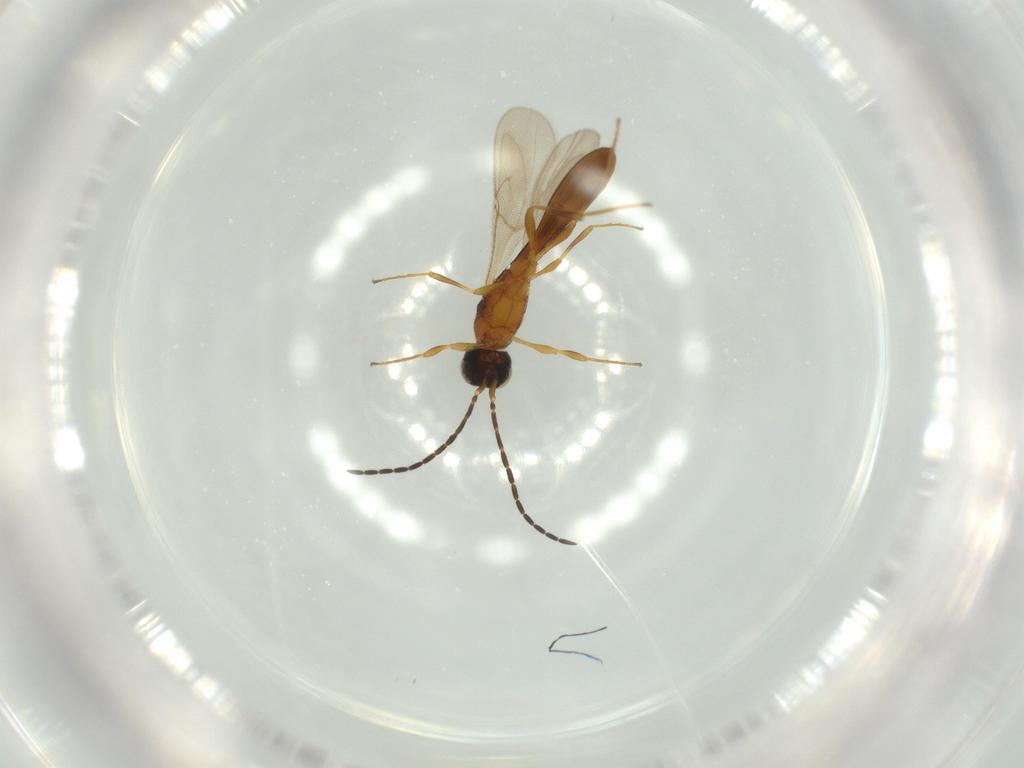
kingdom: Animalia
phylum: Arthropoda
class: Insecta
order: Hymenoptera
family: Scelionidae
